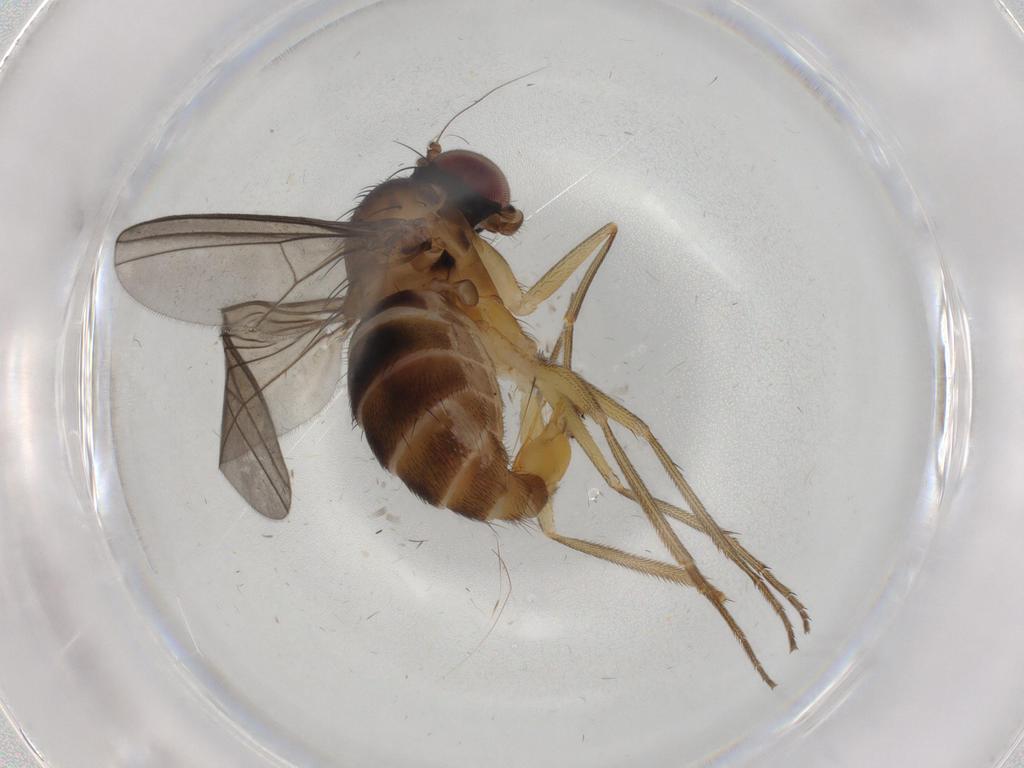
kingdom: Animalia
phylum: Arthropoda
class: Insecta
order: Diptera
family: Dolichopodidae
